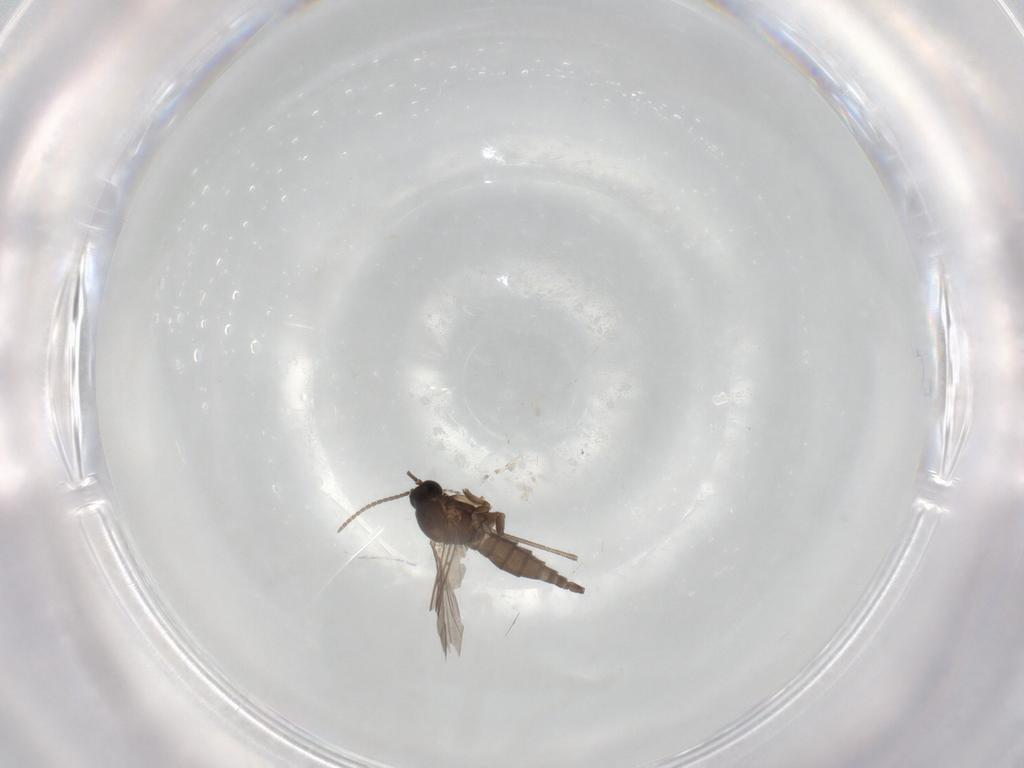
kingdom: Animalia
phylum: Arthropoda
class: Insecta
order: Diptera
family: Sciaridae
